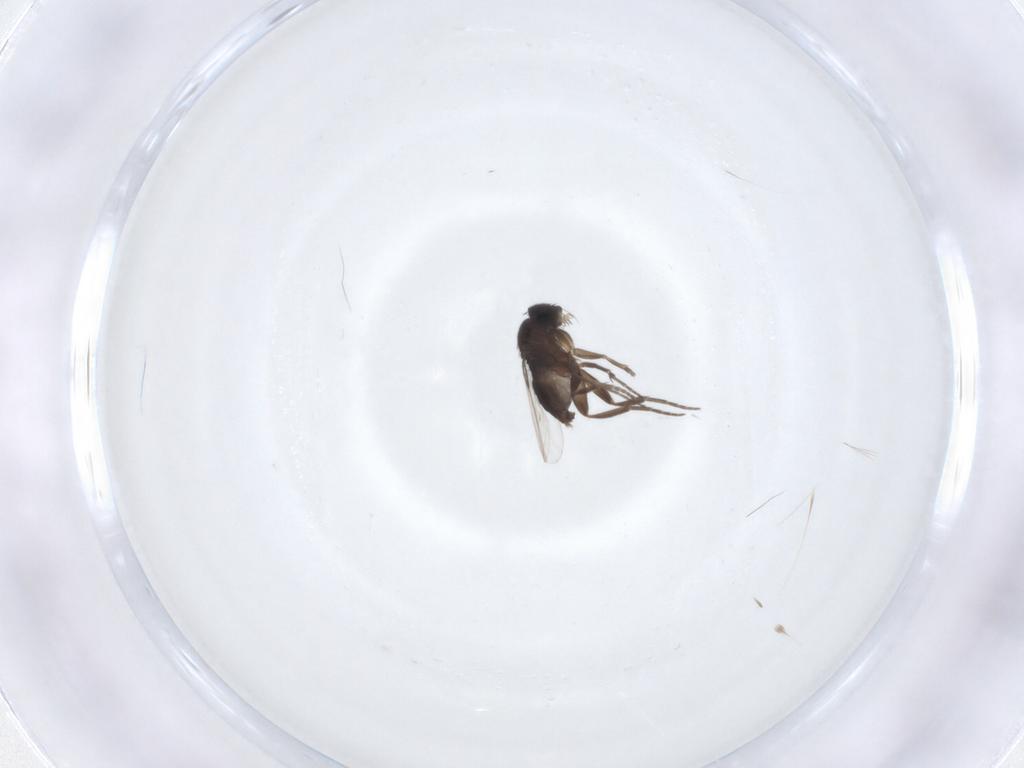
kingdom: Animalia
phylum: Arthropoda
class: Insecta
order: Diptera
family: Phoridae
